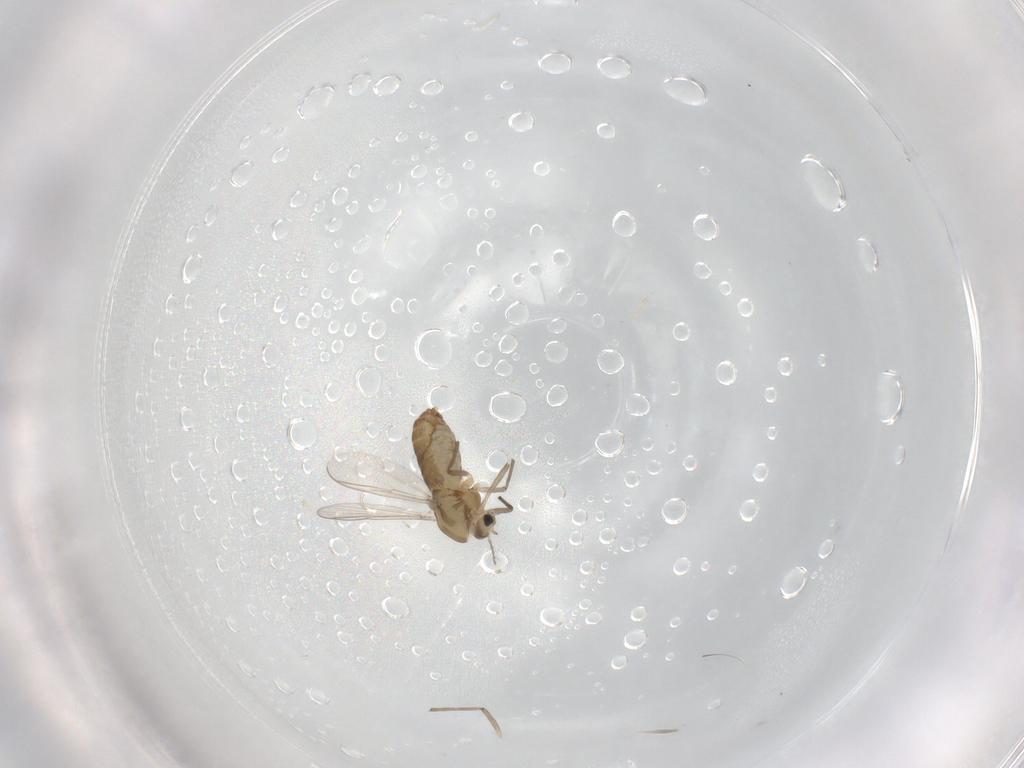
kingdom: Animalia
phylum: Arthropoda
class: Insecta
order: Diptera
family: Chironomidae
